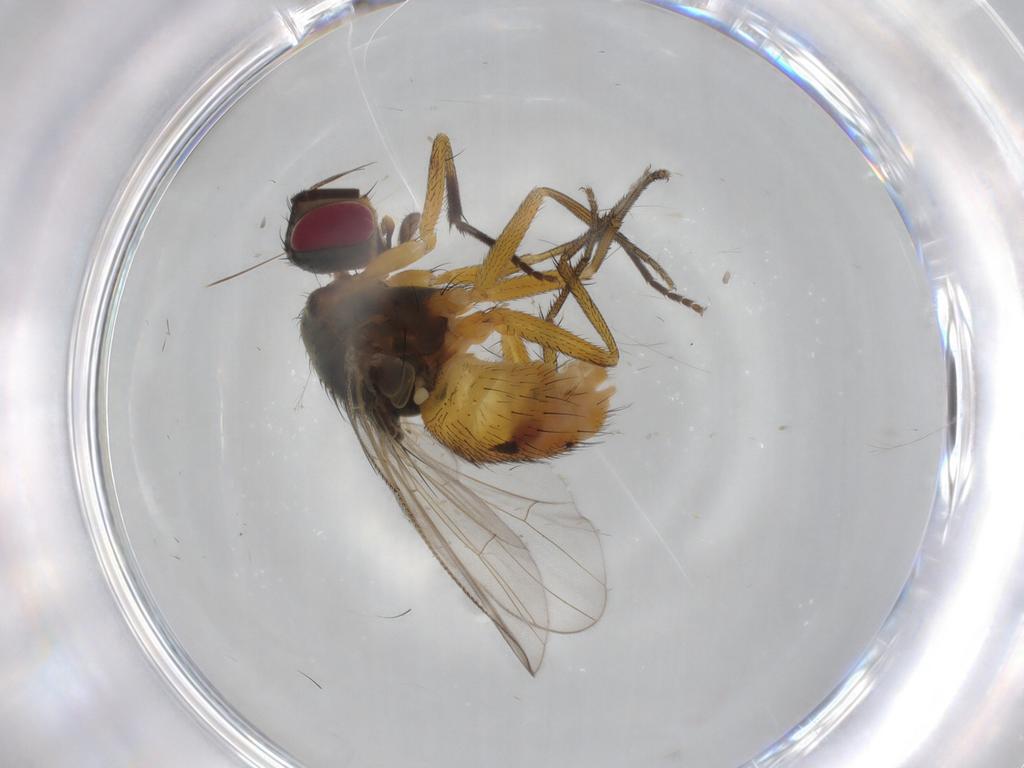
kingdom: Animalia
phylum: Arthropoda
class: Insecta
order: Diptera
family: Muscidae
